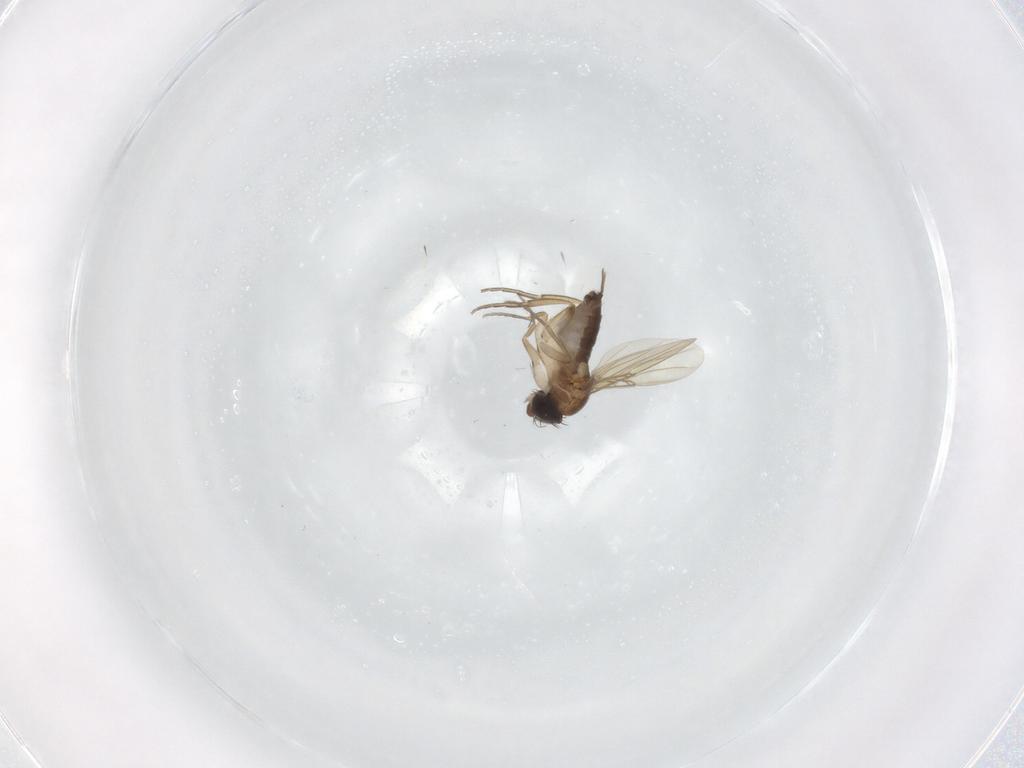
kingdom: Animalia
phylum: Arthropoda
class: Insecta
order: Diptera
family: Phoridae
